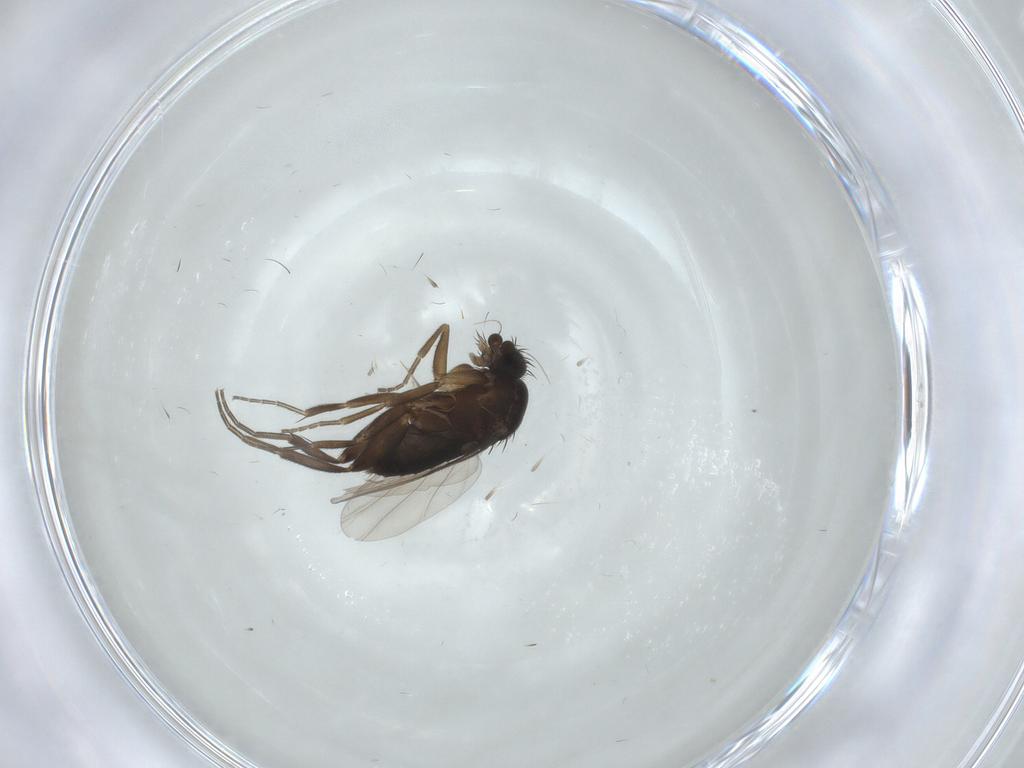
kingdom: Animalia
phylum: Arthropoda
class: Insecta
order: Diptera
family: Phoridae
